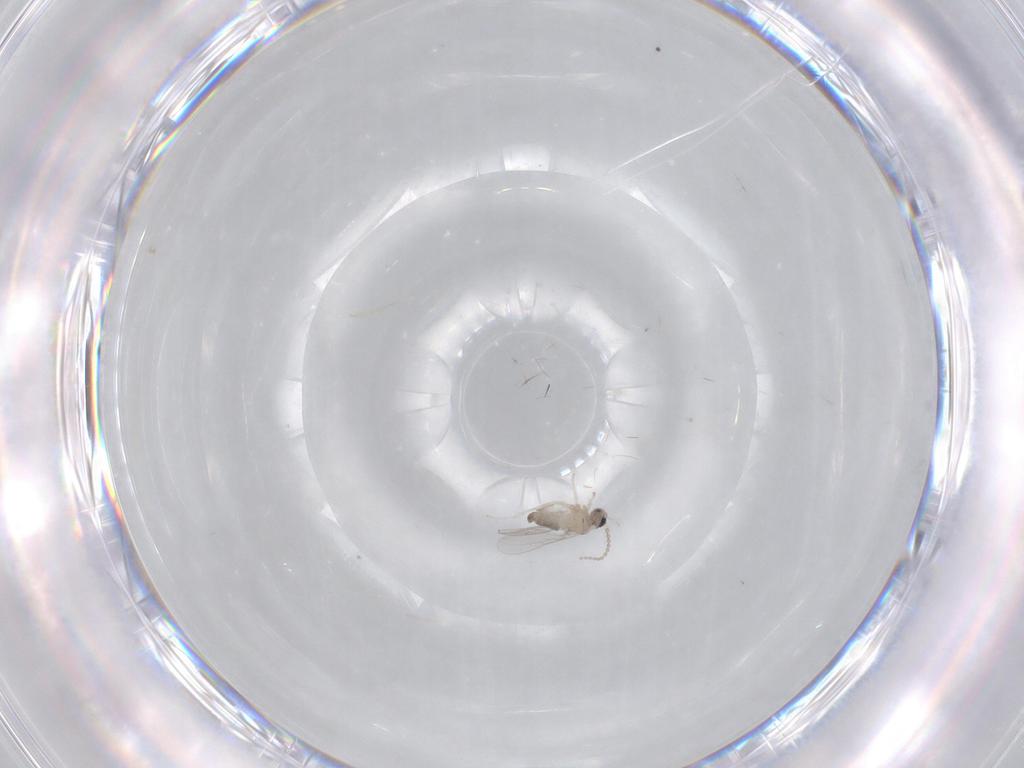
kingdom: Animalia
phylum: Arthropoda
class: Insecta
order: Diptera
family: Cecidomyiidae
